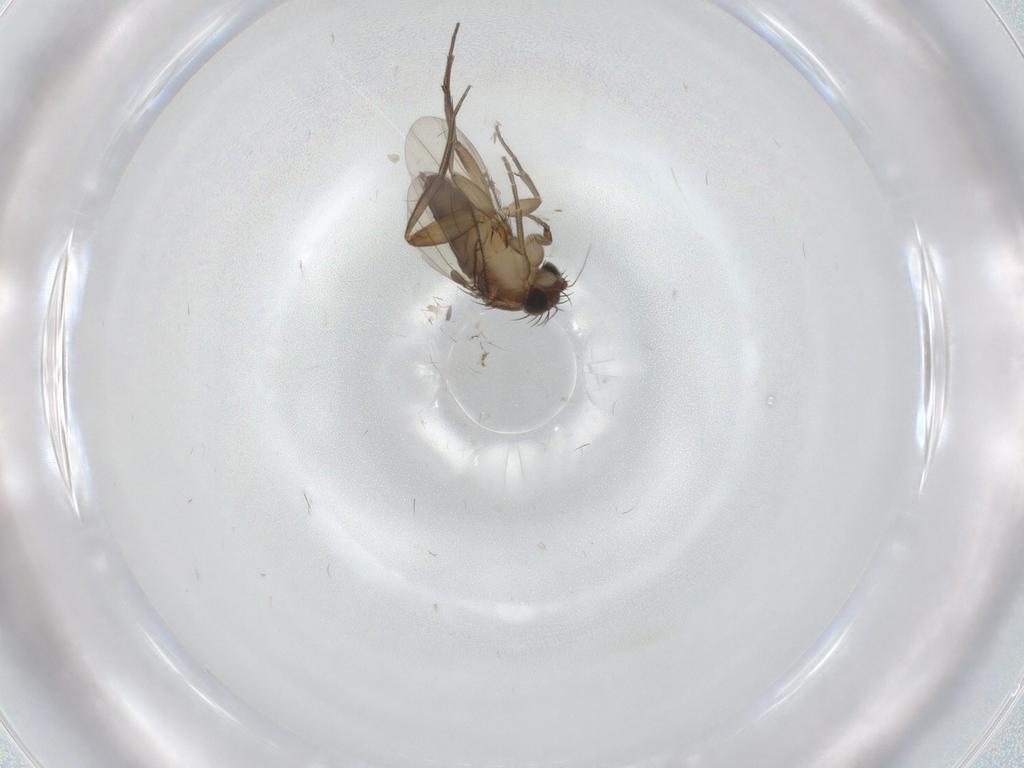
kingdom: Animalia
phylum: Arthropoda
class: Insecta
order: Diptera
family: Phoridae
